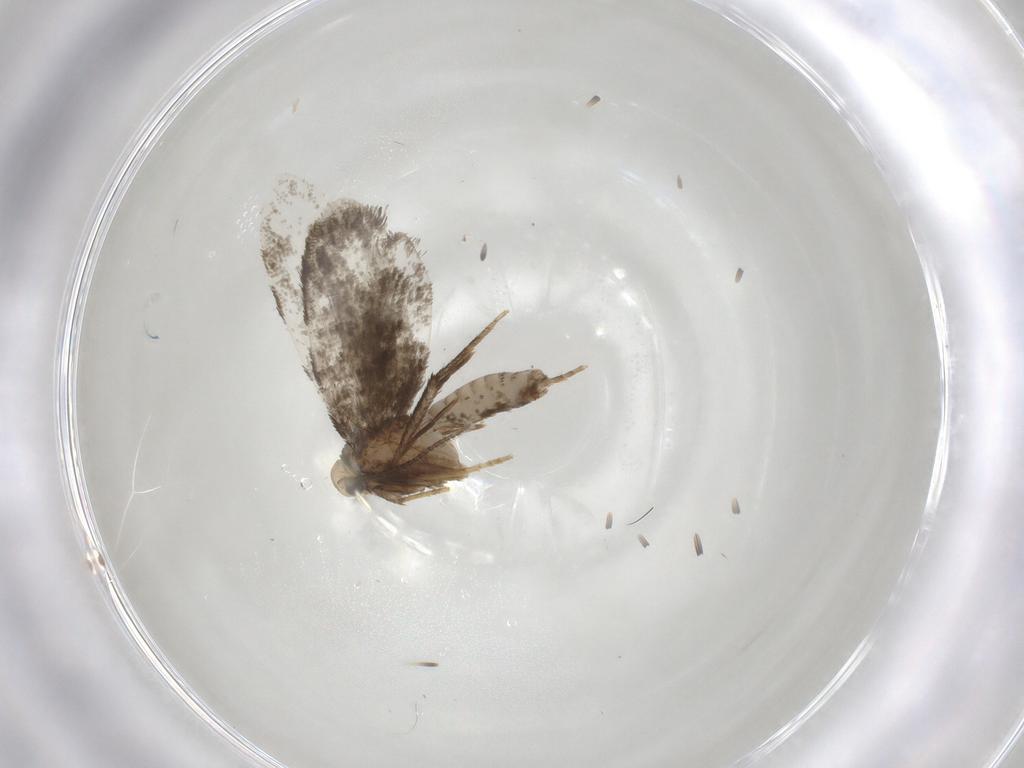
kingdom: Animalia
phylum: Arthropoda
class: Insecta
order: Lepidoptera
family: Psychidae
